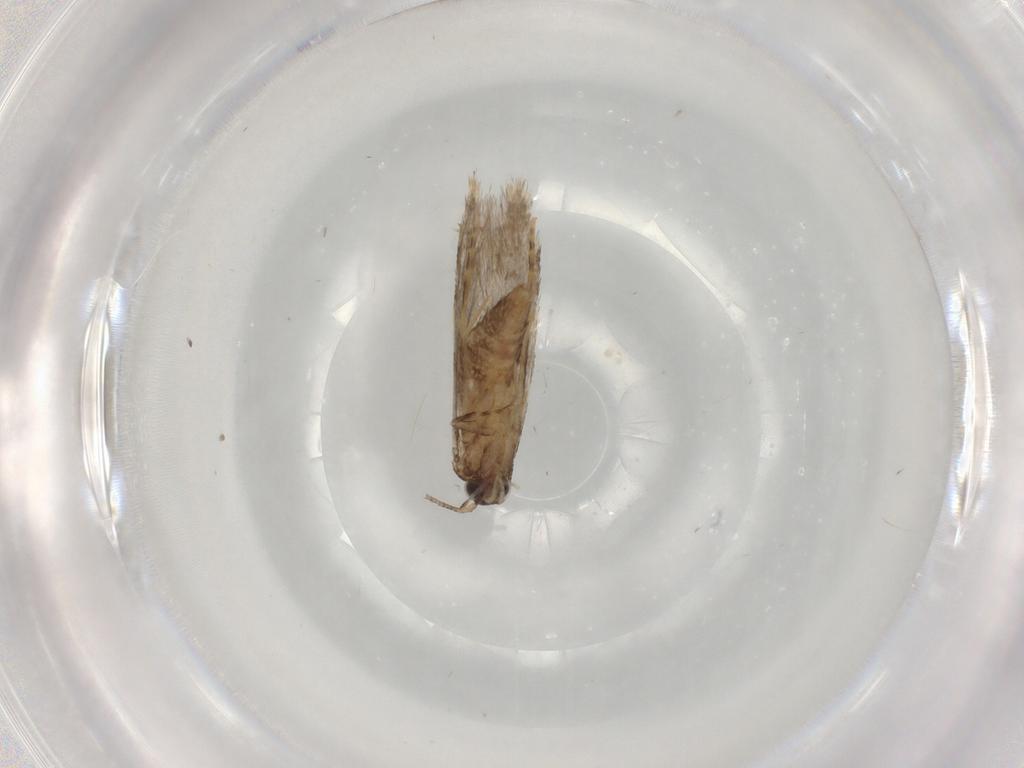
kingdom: Animalia
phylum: Arthropoda
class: Insecta
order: Lepidoptera
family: Tineidae
